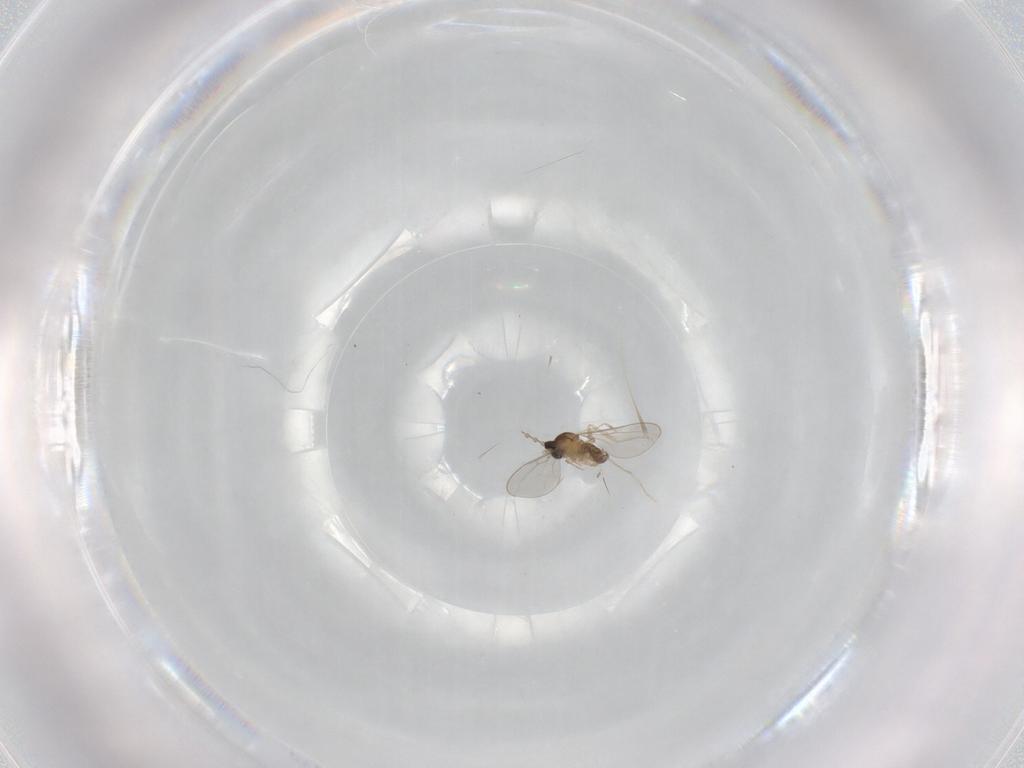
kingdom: Animalia
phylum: Arthropoda
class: Insecta
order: Diptera
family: Cecidomyiidae
